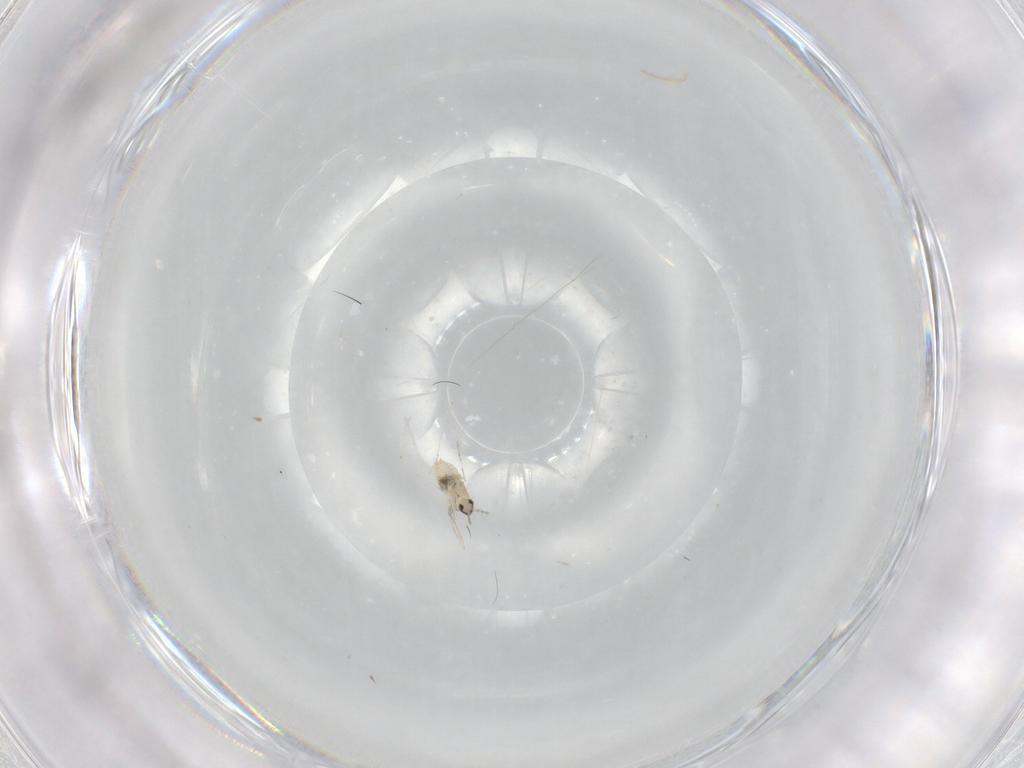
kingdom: Animalia
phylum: Arthropoda
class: Insecta
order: Diptera
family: Cecidomyiidae
